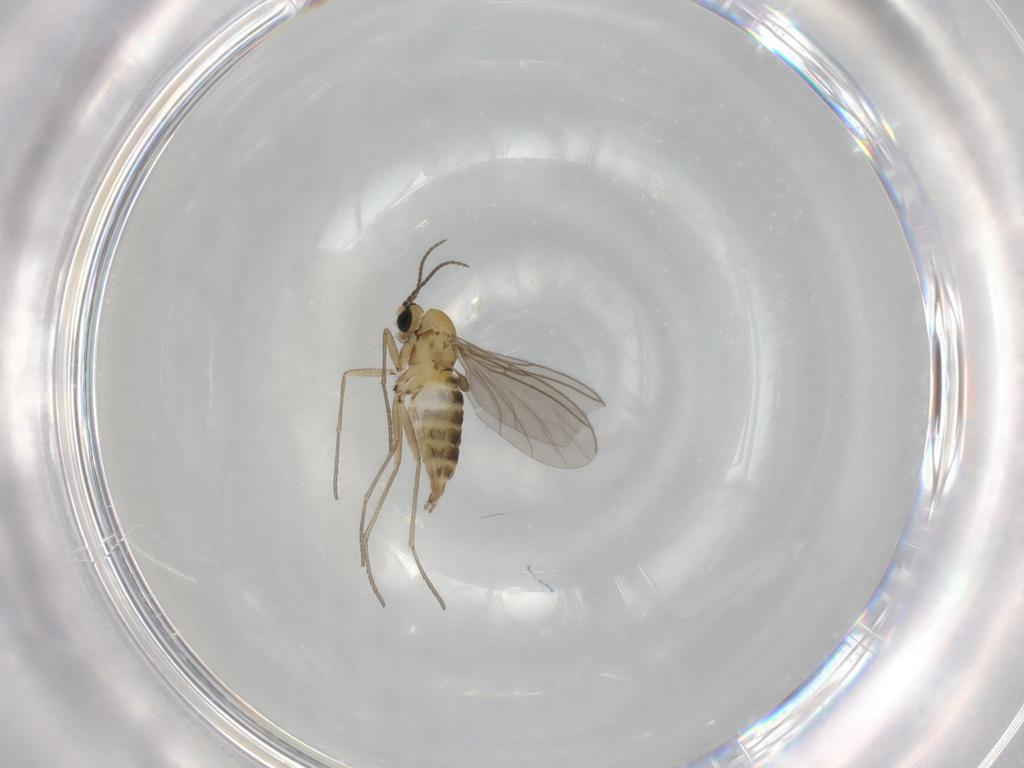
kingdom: Animalia
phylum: Arthropoda
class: Insecta
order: Diptera
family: Sciaridae
